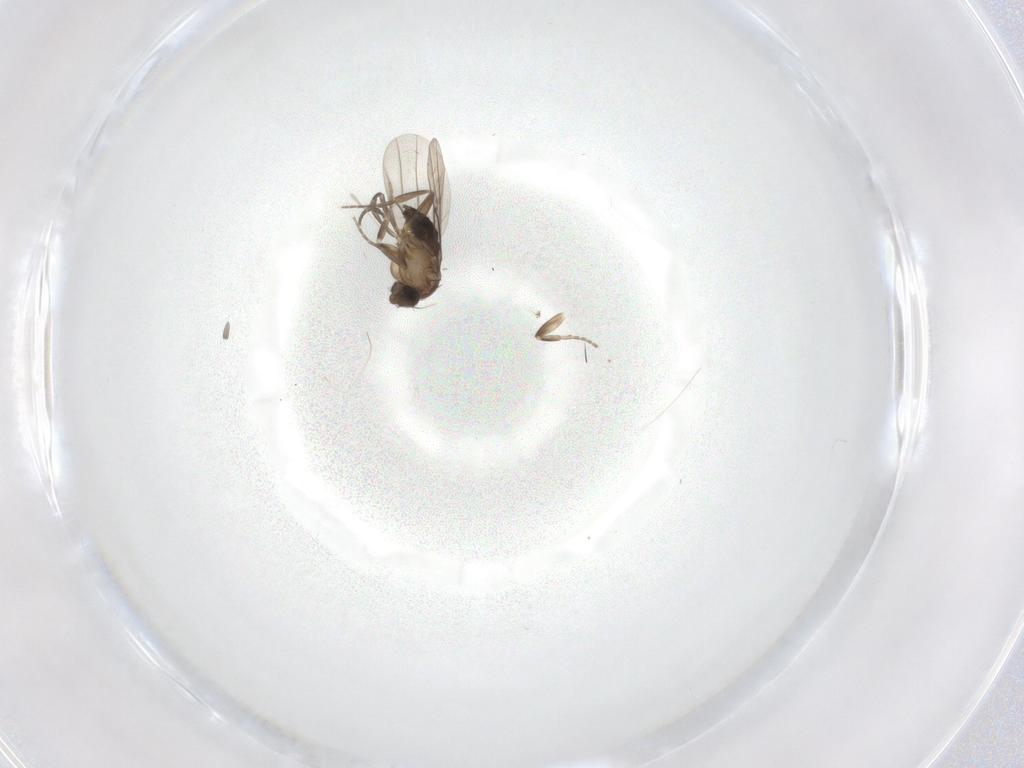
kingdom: Animalia
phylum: Arthropoda
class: Insecta
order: Diptera
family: Cecidomyiidae
